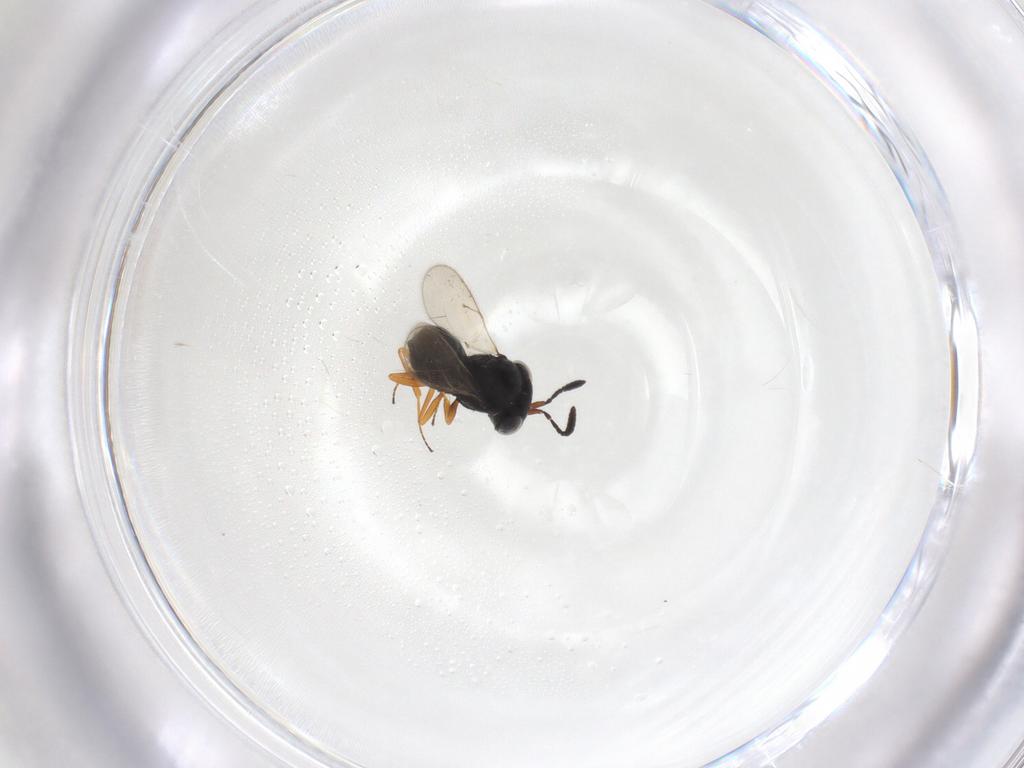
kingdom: Animalia
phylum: Arthropoda
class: Insecta
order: Hymenoptera
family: Scelionidae
